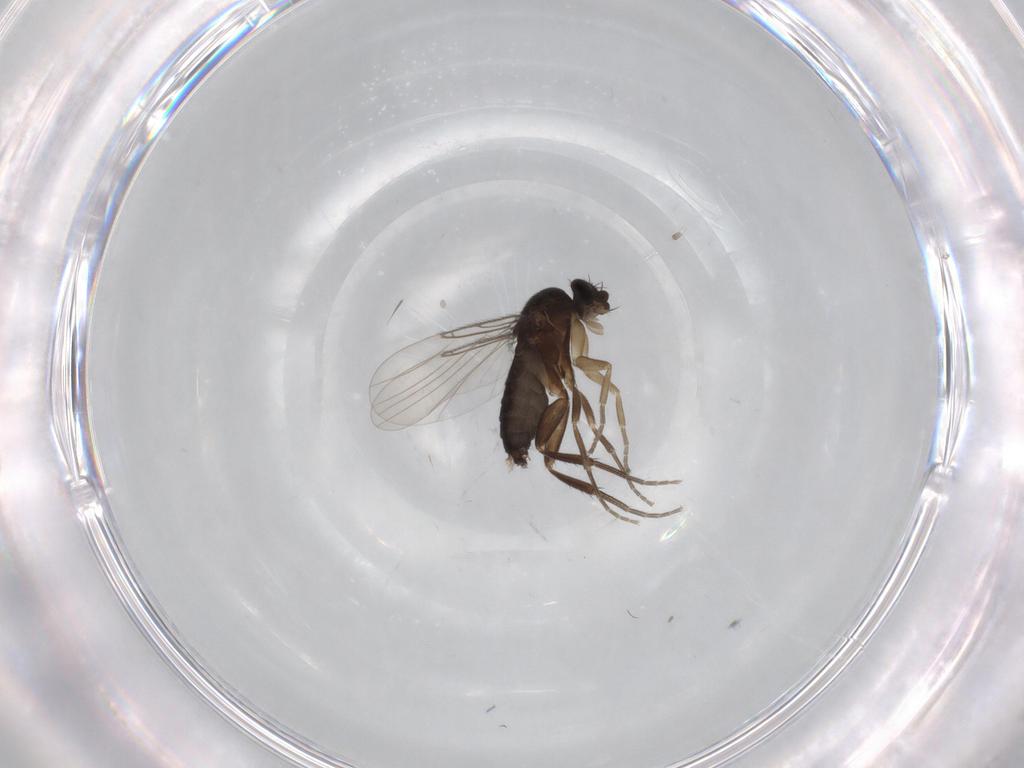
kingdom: Animalia
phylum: Arthropoda
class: Insecta
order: Diptera
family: Phoridae
